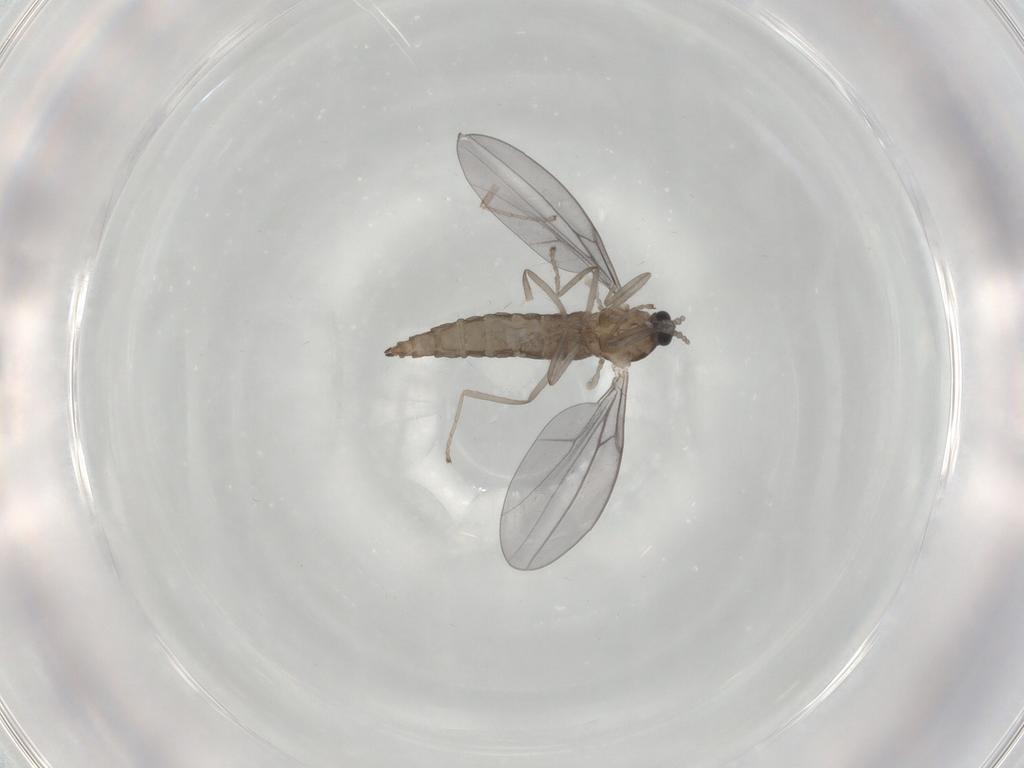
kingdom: Animalia
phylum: Arthropoda
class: Insecta
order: Diptera
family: Cecidomyiidae
